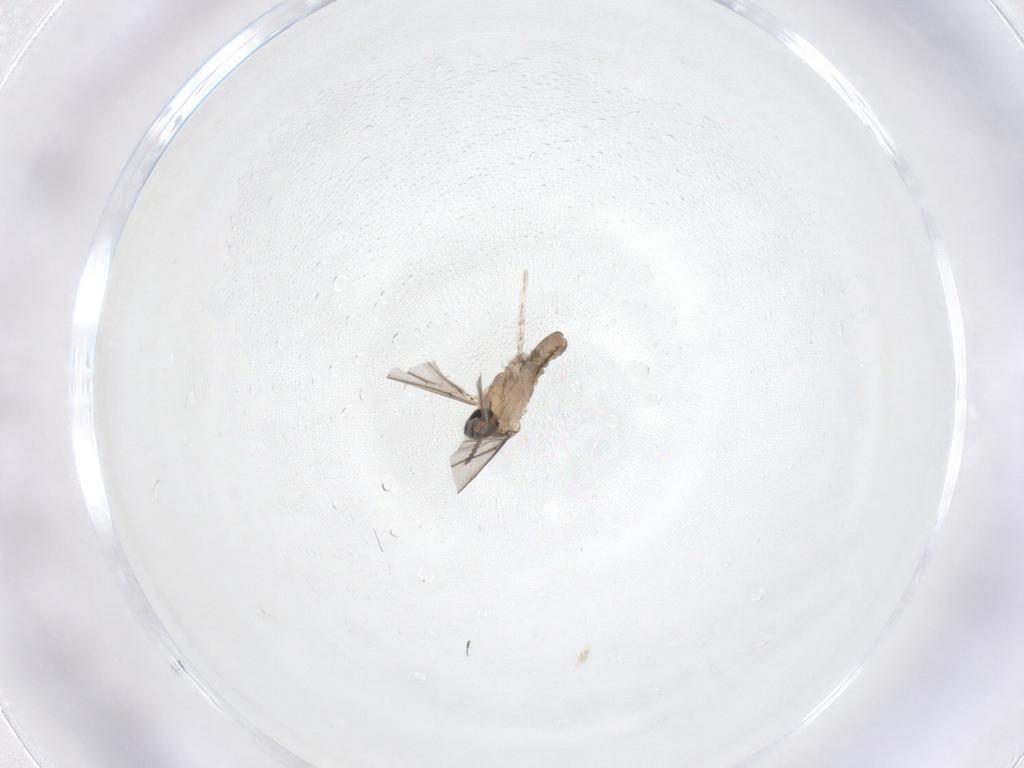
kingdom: Animalia
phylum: Arthropoda
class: Insecta
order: Diptera
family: Cecidomyiidae
